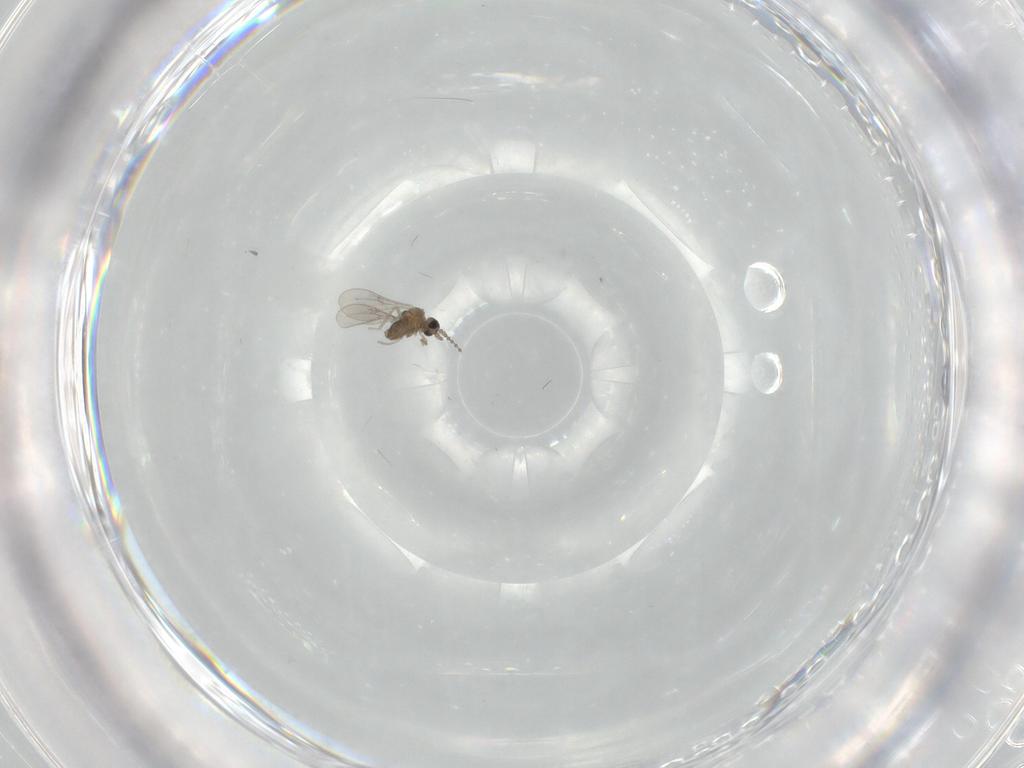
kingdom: Animalia
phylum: Arthropoda
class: Insecta
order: Diptera
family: Cecidomyiidae
